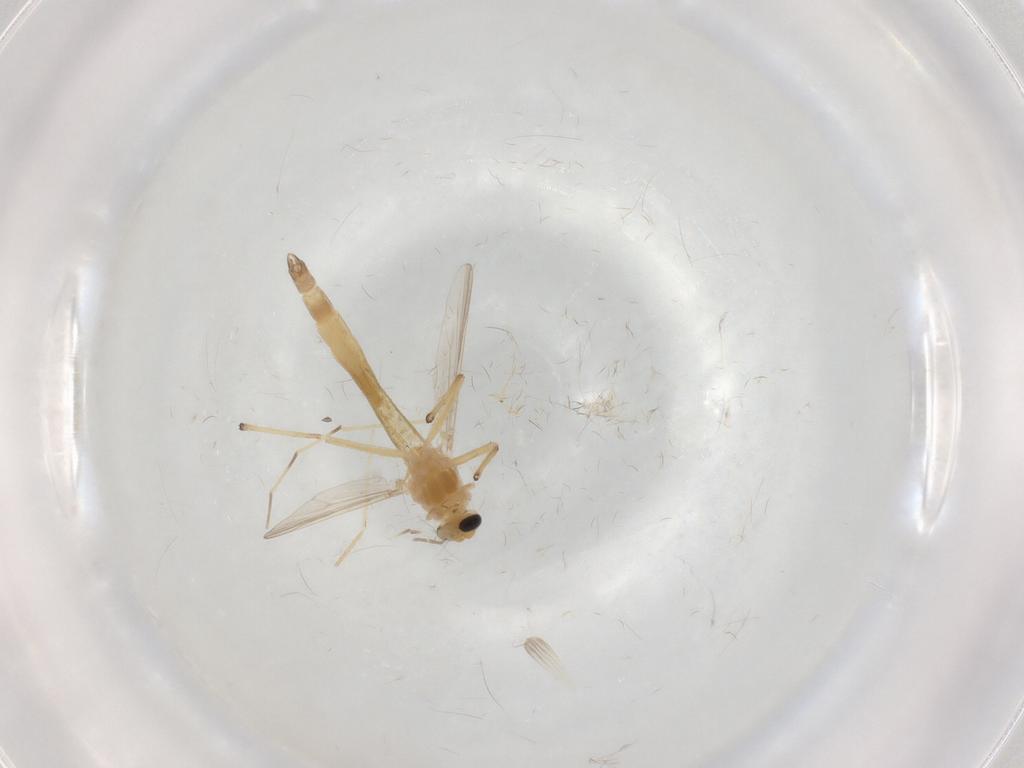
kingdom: Animalia
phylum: Arthropoda
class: Insecta
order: Diptera
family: Chironomidae
